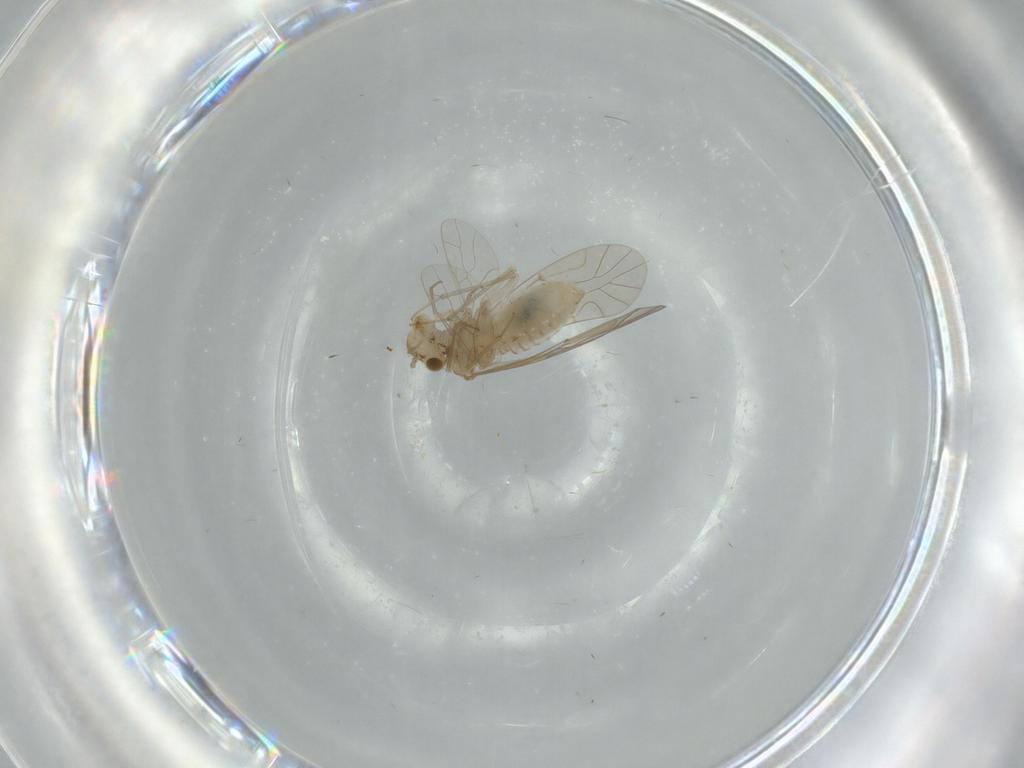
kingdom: Animalia
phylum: Arthropoda
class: Insecta
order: Psocodea
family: Lachesillidae
